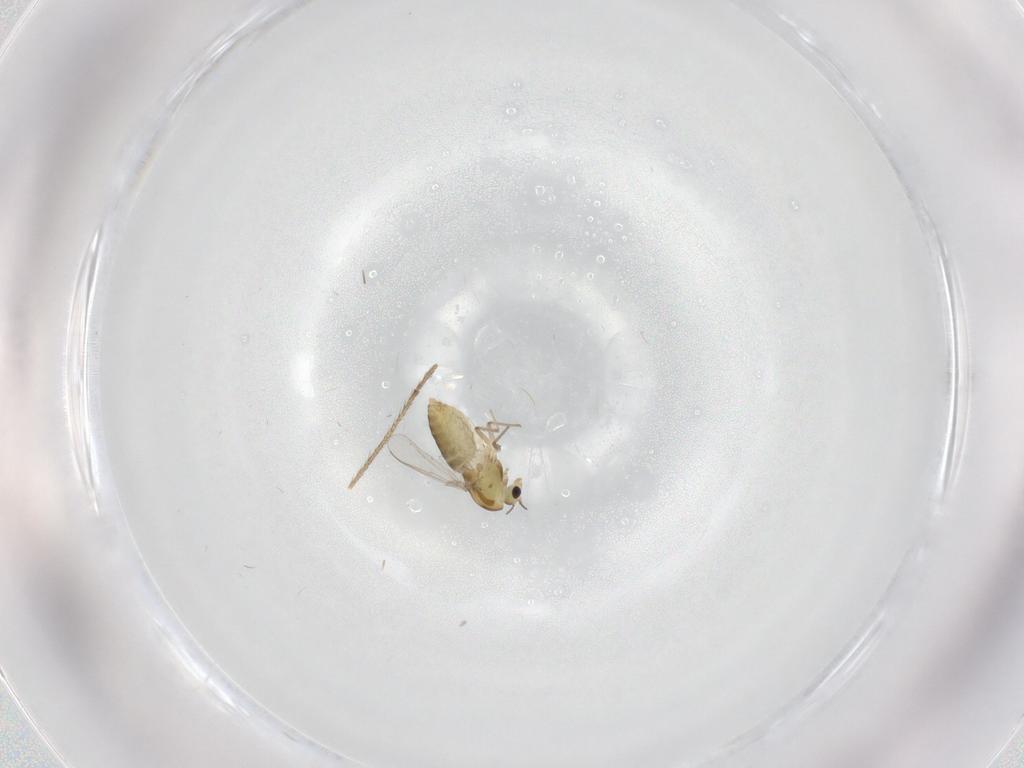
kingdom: Animalia
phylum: Arthropoda
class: Insecta
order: Diptera
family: Chironomidae
